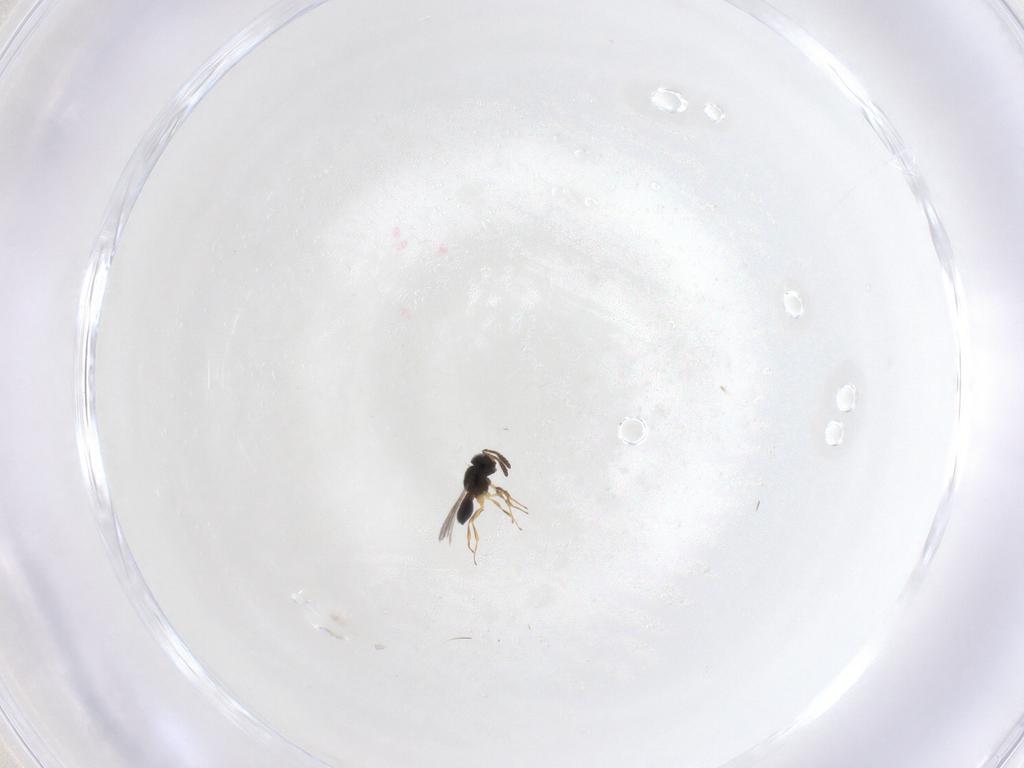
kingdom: Animalia
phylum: Arthropoda
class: Insecta
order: Hymenoptera
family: Scelionidae
